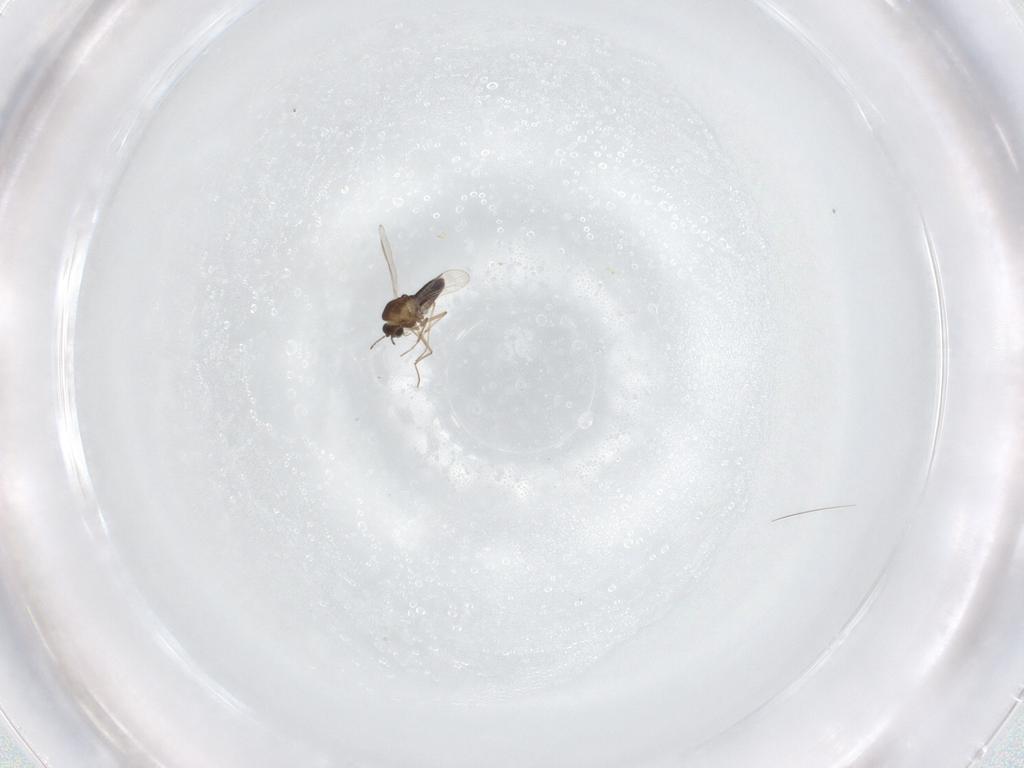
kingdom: Animalia
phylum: Arthropoda
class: Insecta
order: Diptera
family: Chironomidae
